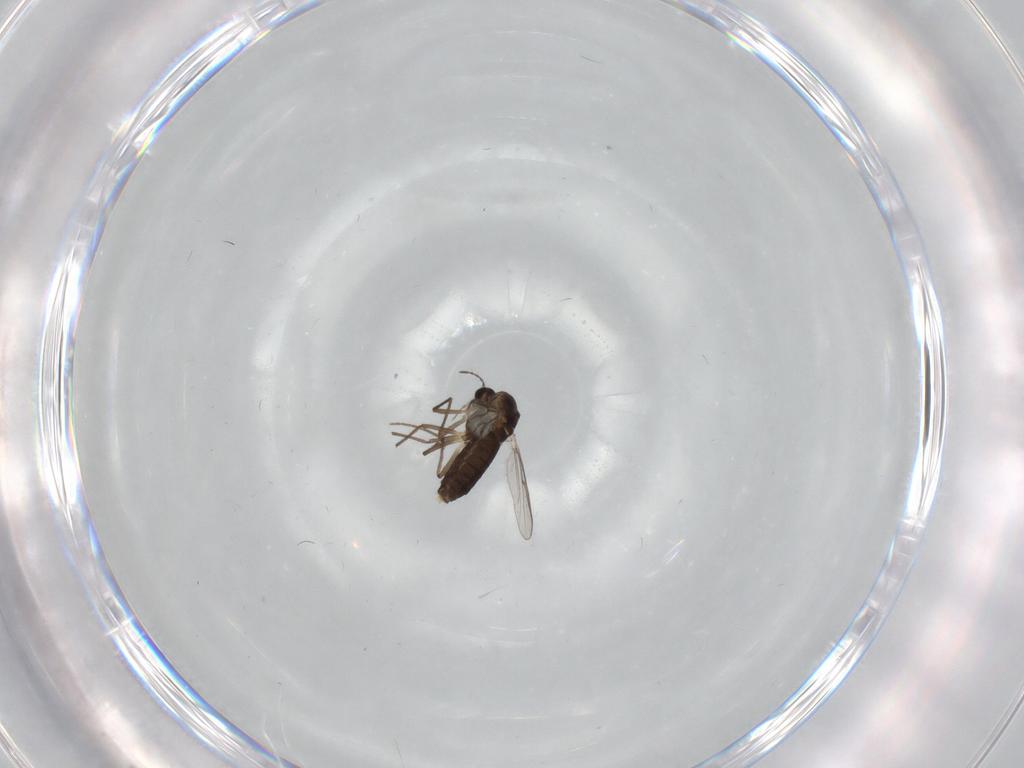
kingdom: Animalia
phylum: Arthropoda
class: Insecta
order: Diptera
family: Chironomidae
